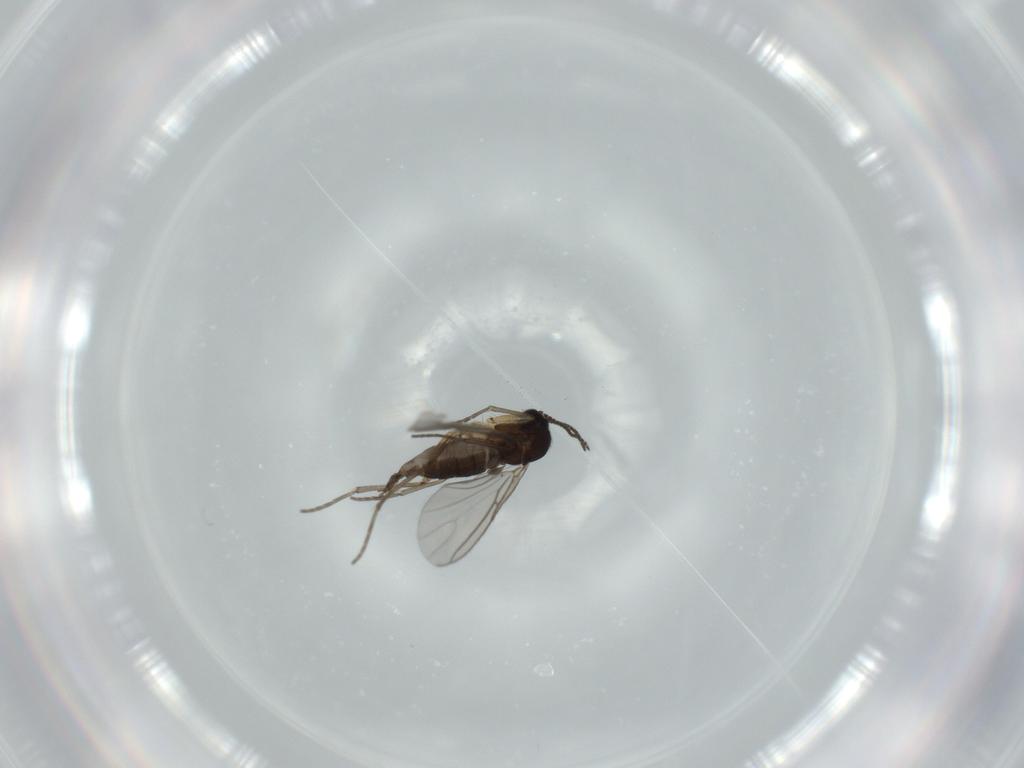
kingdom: Animalia
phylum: Arthropoda
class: Insecta
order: Diptera
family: Sciaridae
